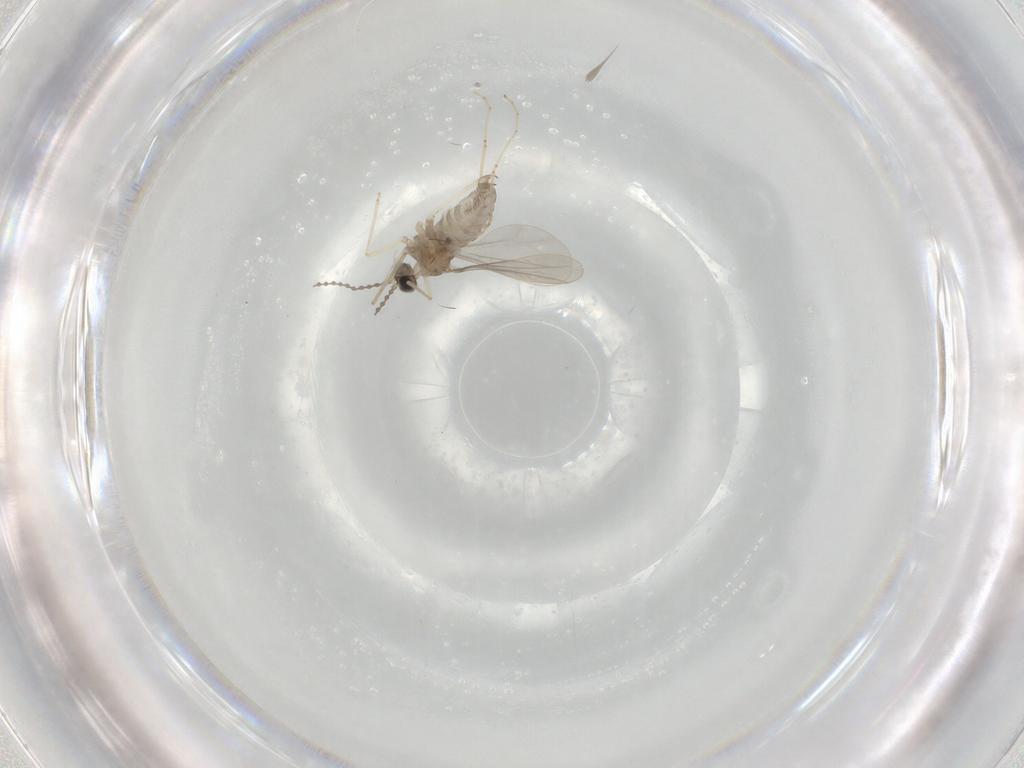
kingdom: Animalia
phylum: Arthropoda
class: Insecta
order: Diptera
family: Cecidomyiidae
